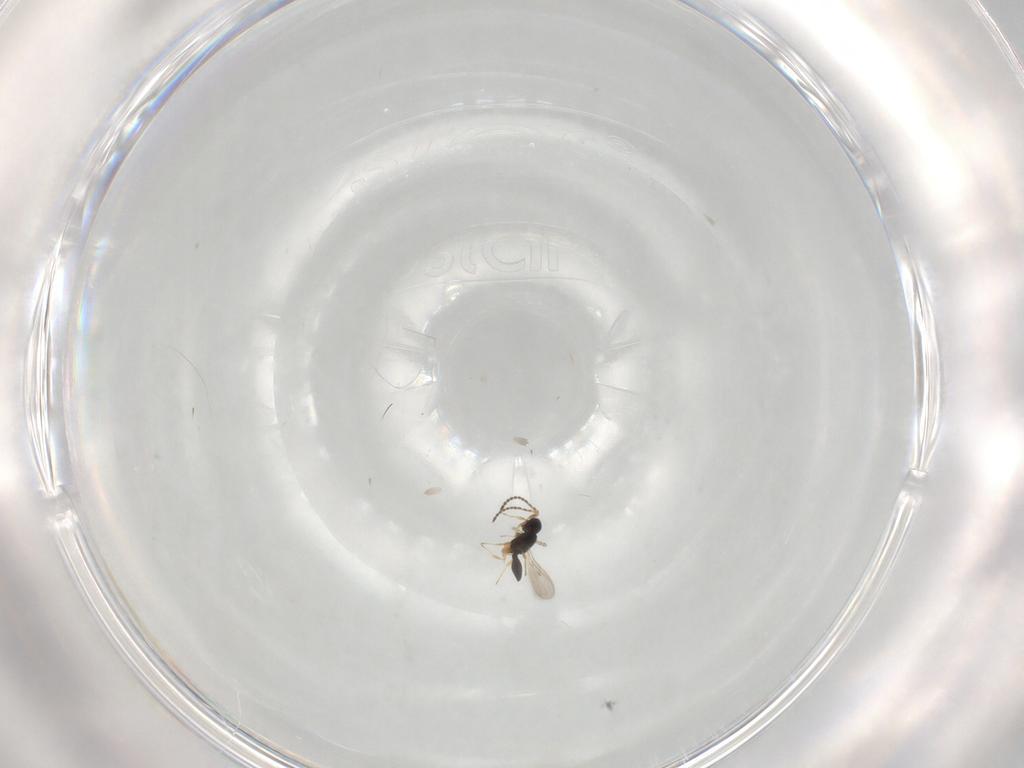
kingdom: Animalia
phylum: Arthropoda
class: Insecta
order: Hymenoptera
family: Scelionidae
